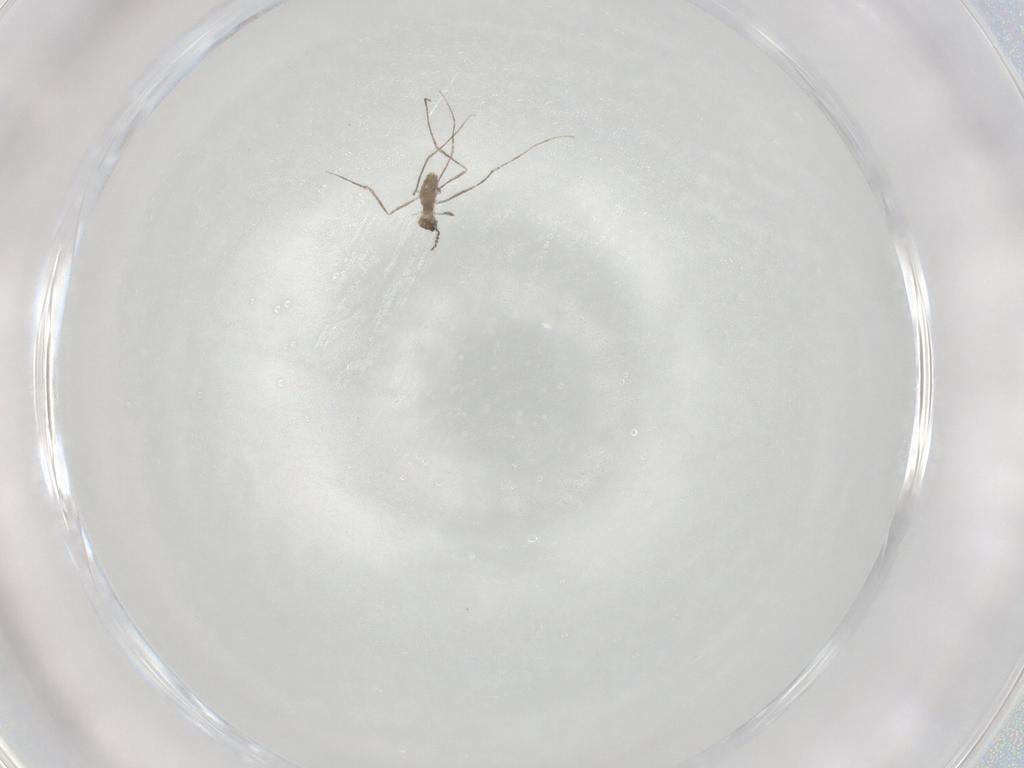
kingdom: Animalia
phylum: Arthropoda
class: Insecta
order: Diptera
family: Cecidomyiidae
